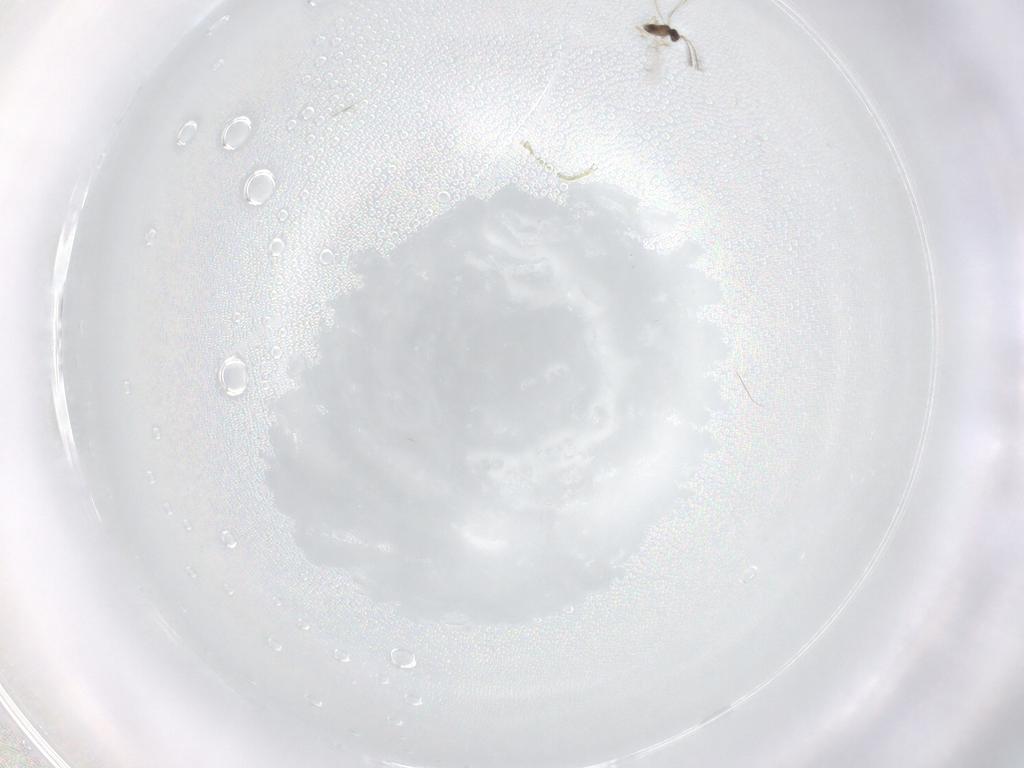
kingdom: Animalia
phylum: Arthropoda
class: Insecta
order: Hymenoptera
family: Mymaridae
